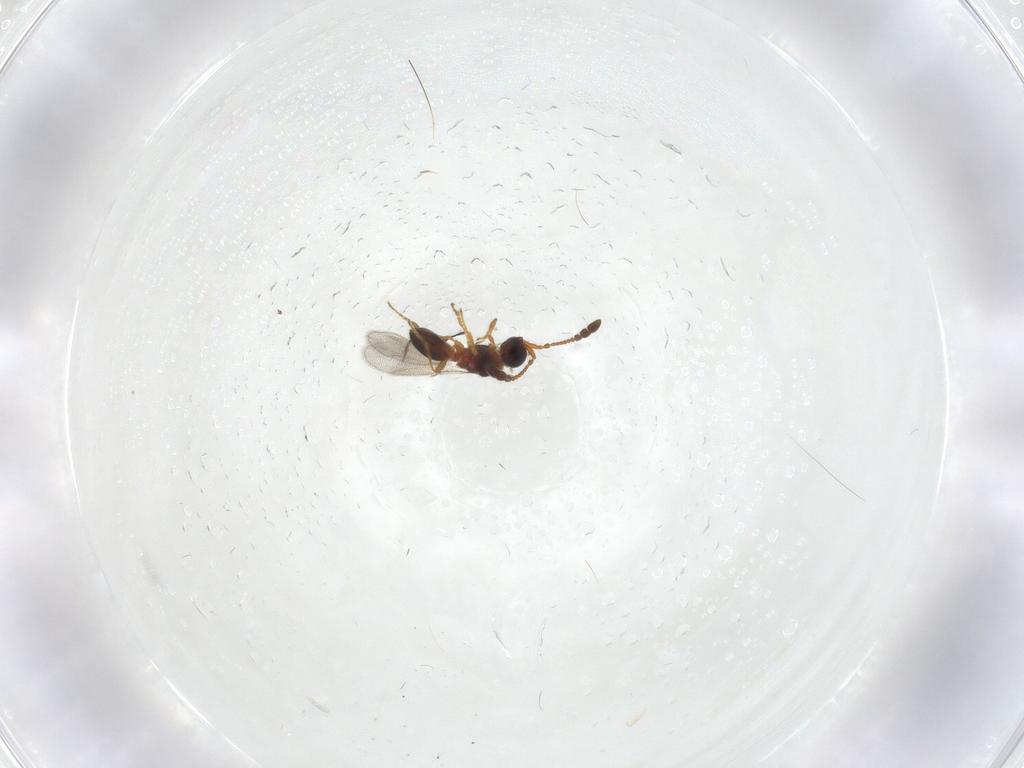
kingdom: Animalia
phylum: Arthropoda
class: Insecta
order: Hymenoptera
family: Diapriidae
